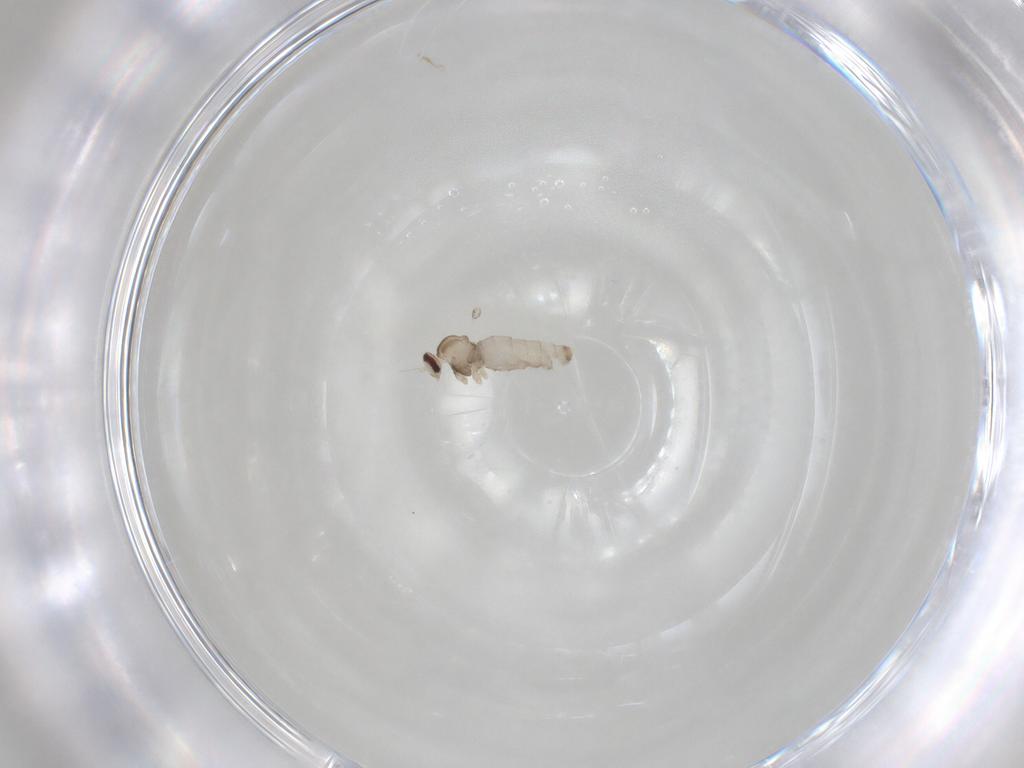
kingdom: Animalia
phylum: Arthropoda
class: Insecta
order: Diptera
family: Cecidomyiidae
